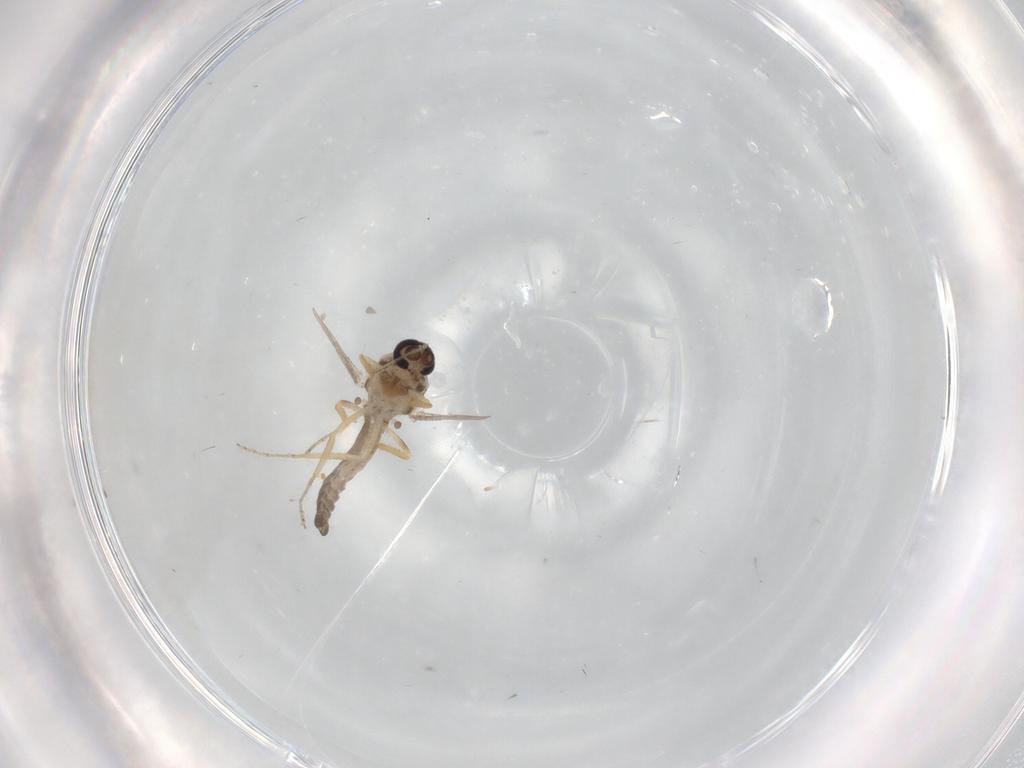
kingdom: Animalia
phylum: Arthropoda
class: Insecta
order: Diptera
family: Ceratopogonidae
